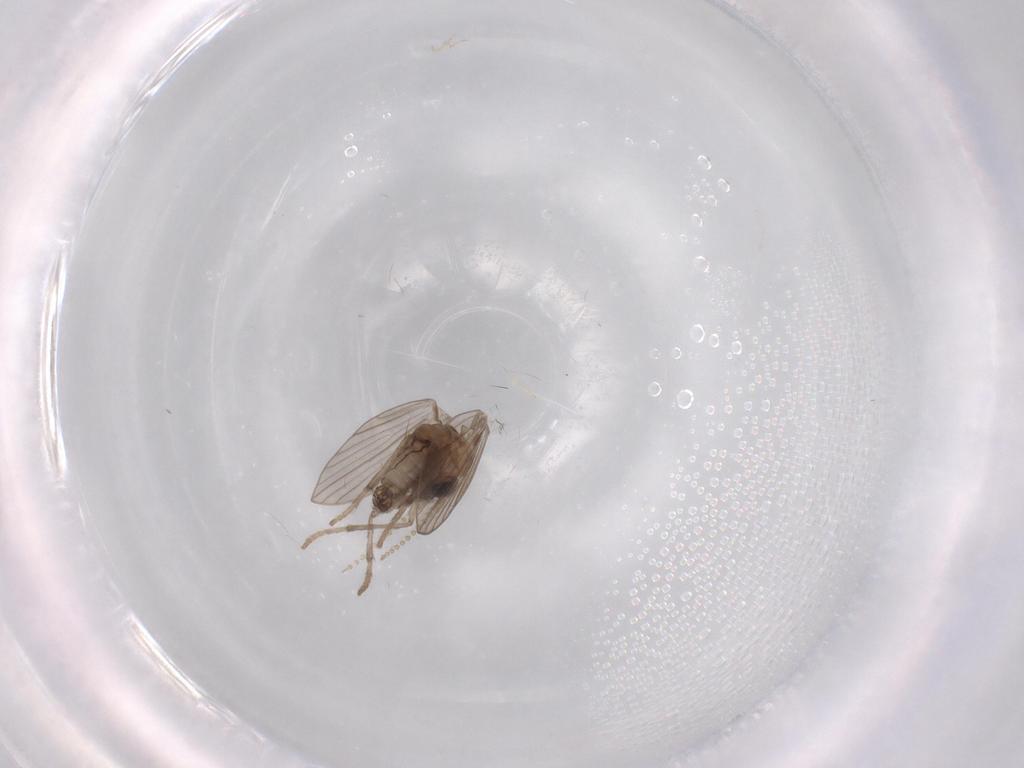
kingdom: Animalia
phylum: Arthropoda
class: Insecta
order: Diptera
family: Psychodidae
